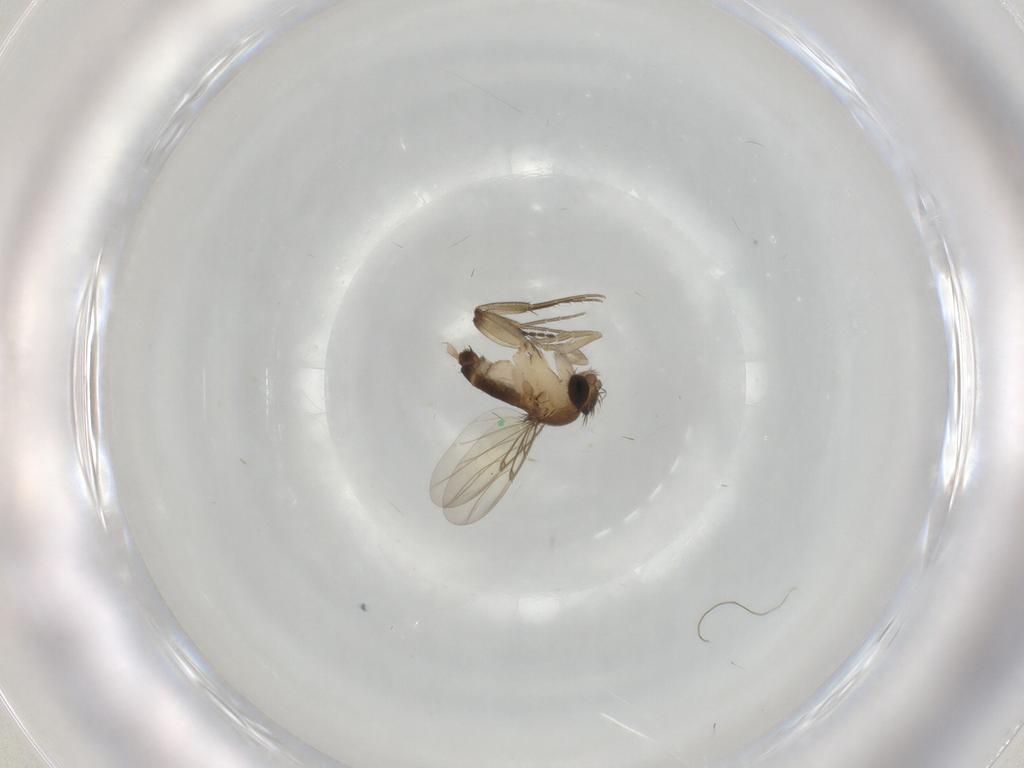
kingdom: Animalia
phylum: Arthropoda
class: Insecta
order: Diptera
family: Phoridae
